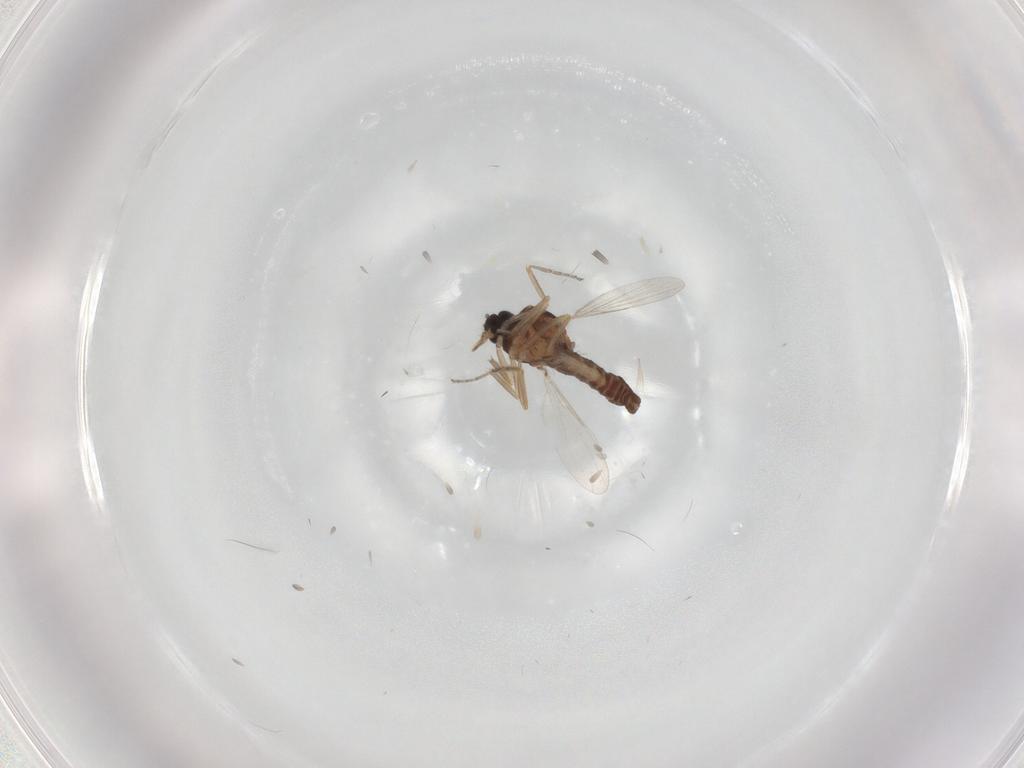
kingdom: Animalia
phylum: Arthropoda
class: Insecta
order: Diptera
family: Ceratopogonidae
